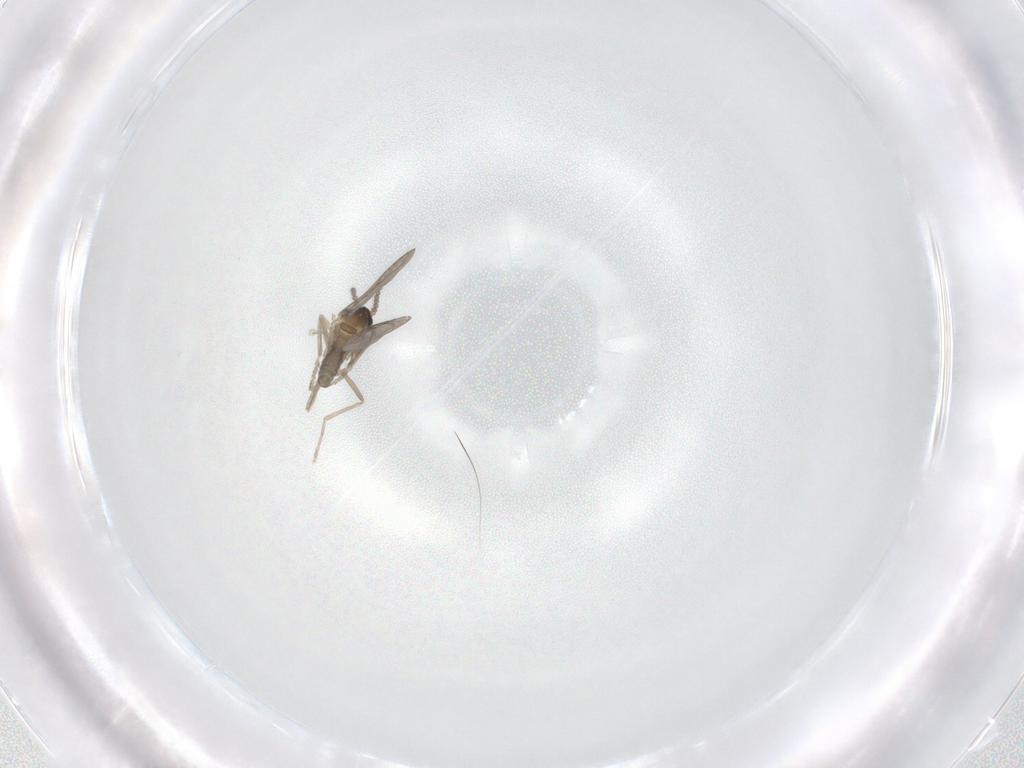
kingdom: Animalia
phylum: Arthropoda
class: Insecta
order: Diptera
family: Cecidomyiidae
